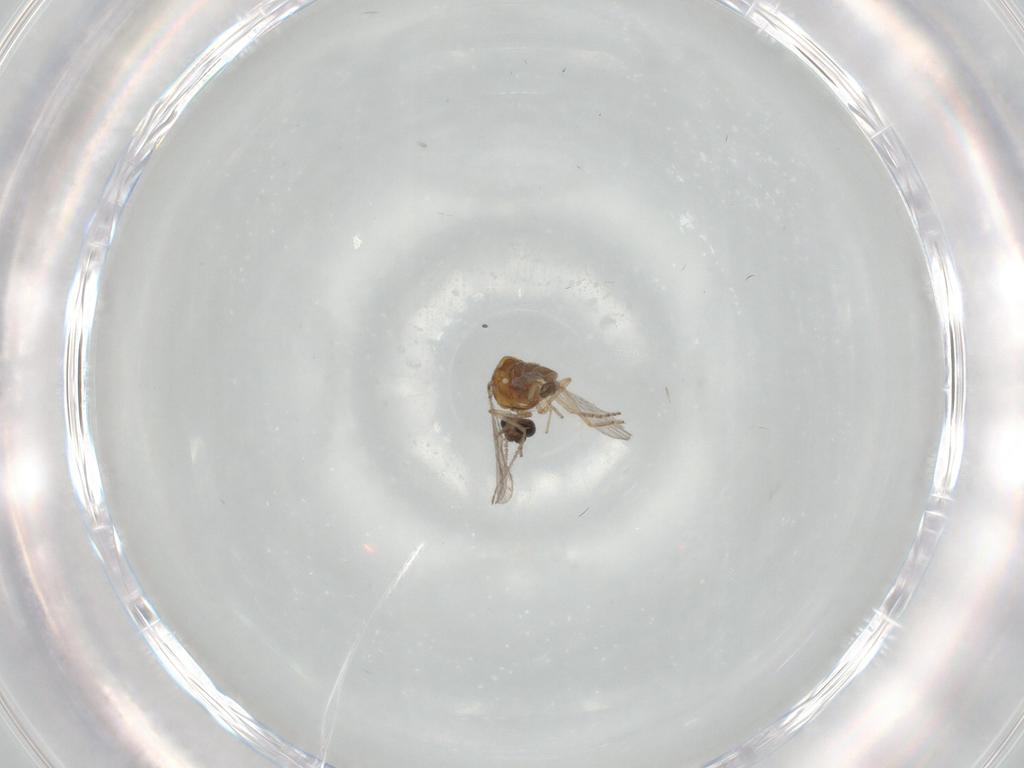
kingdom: Animalia
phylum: Arthropoda
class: Insecta
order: Diptera
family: Ceratopogonidae
